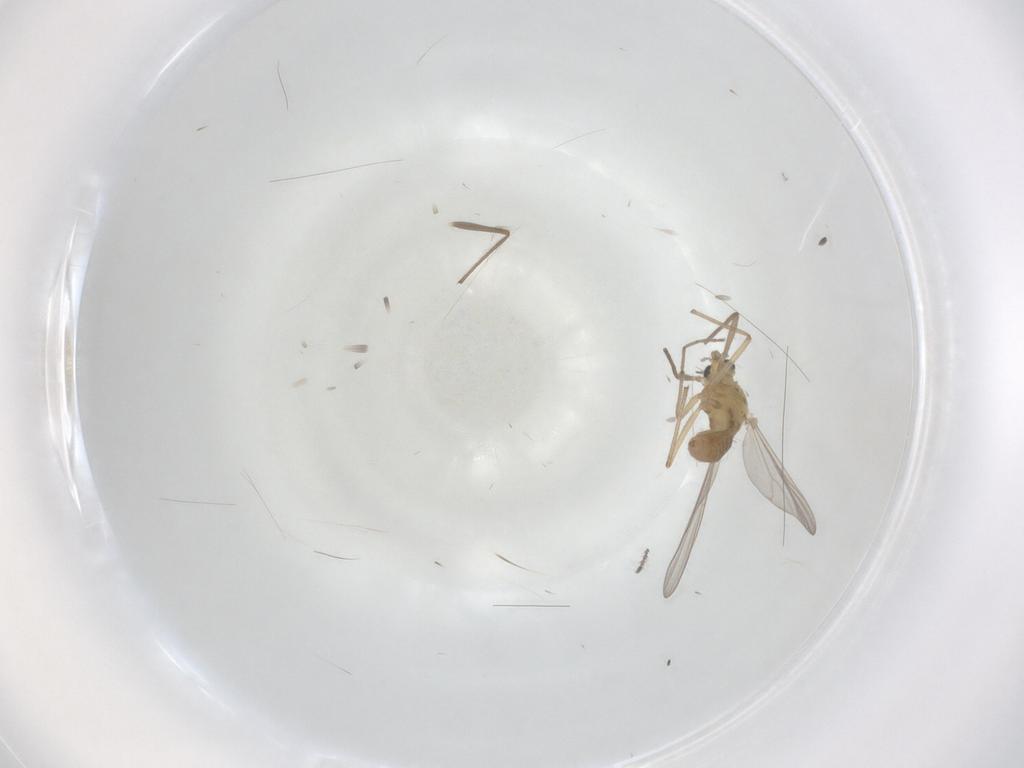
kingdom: Animalia
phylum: Arthropoda
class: Insecta
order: Diptera
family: Chironomidae
